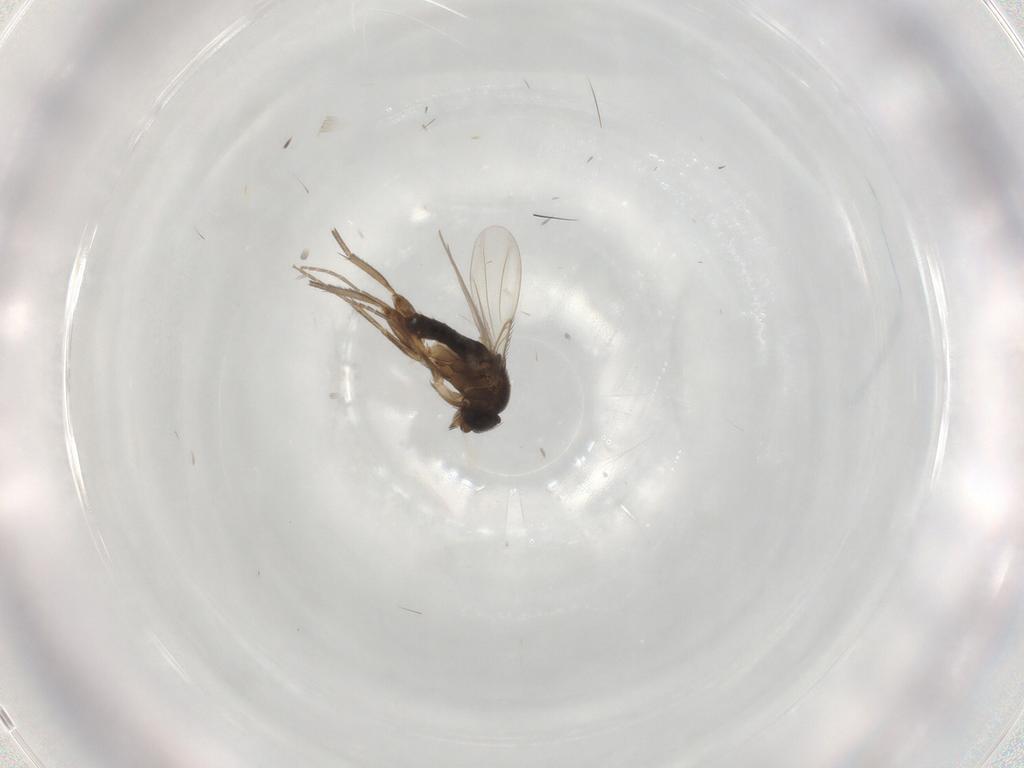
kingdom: Animalia
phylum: Arthropoda
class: Insecta
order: Diptera
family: Phoridae
